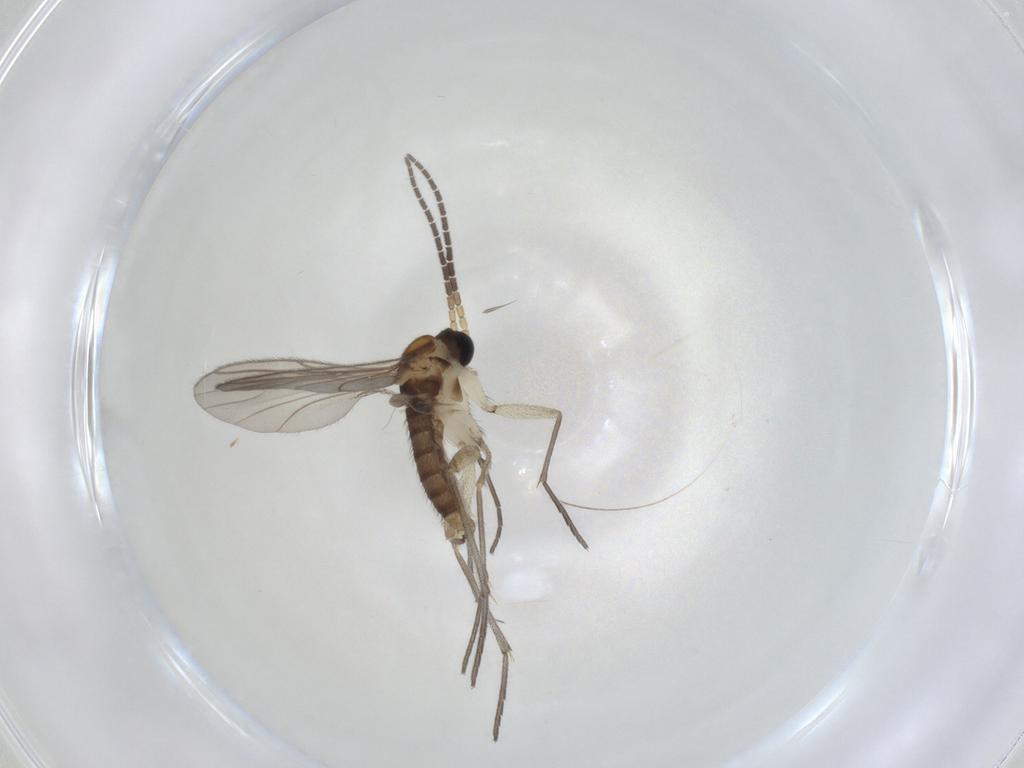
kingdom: Animalia
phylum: Arthropoda
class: Insecta
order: Diptera
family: Sciaridae
